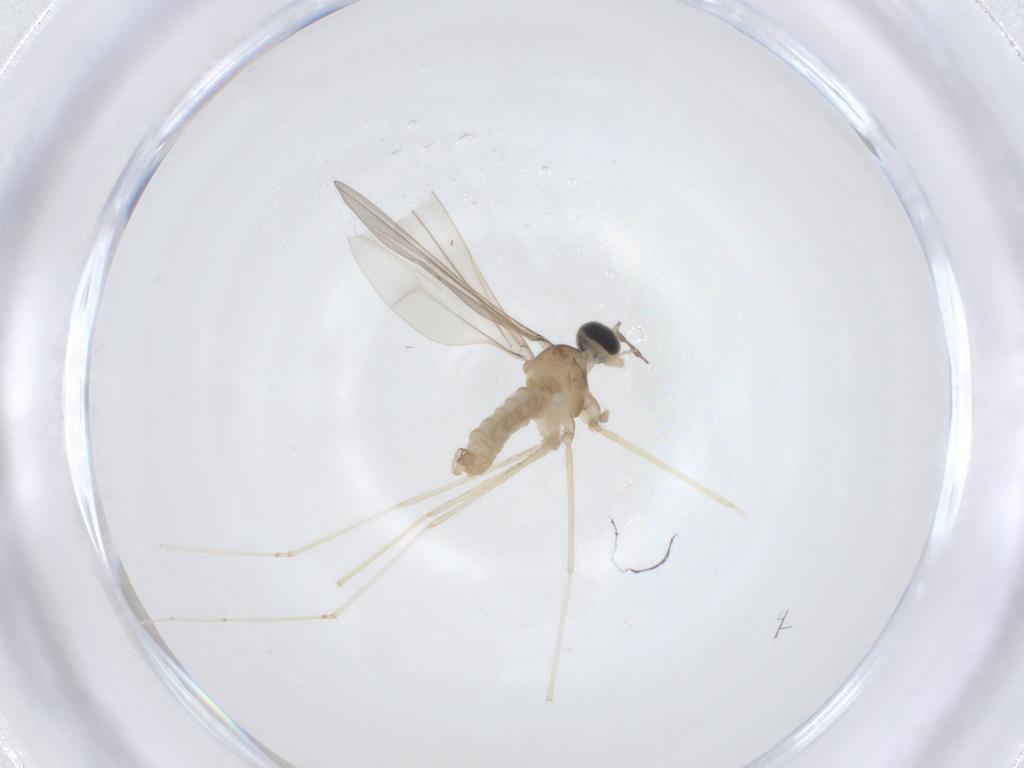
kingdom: Animalia
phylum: Arthropoda
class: Insecta
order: Diptera
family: Cecidomyiidae
